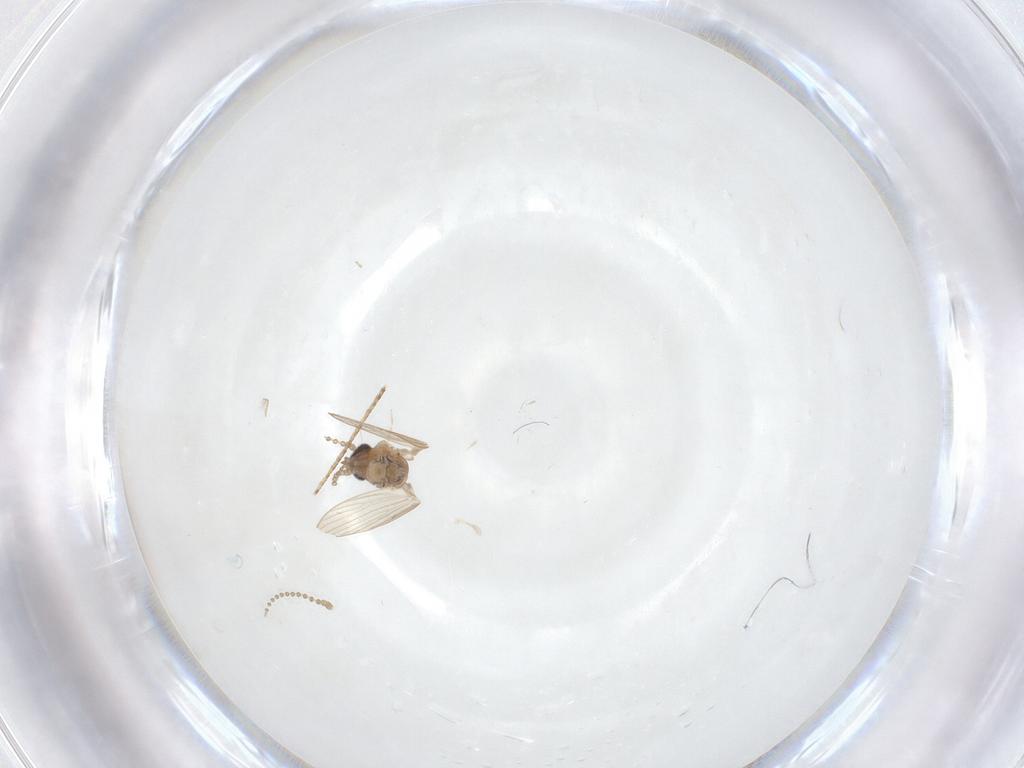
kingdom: Animalia
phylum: Arthropoda
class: Insecta
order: Diptera
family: Psychodidae
